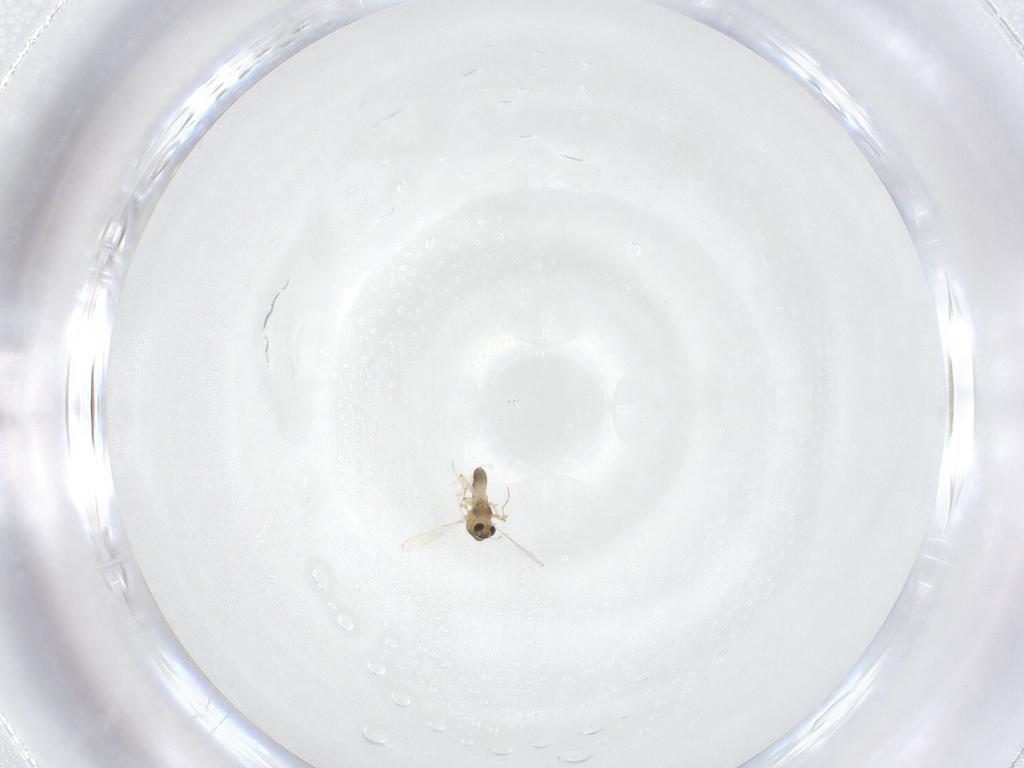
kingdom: Animalia
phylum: Arthropoda
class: Insecta
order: Diptera
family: Chironomidae
